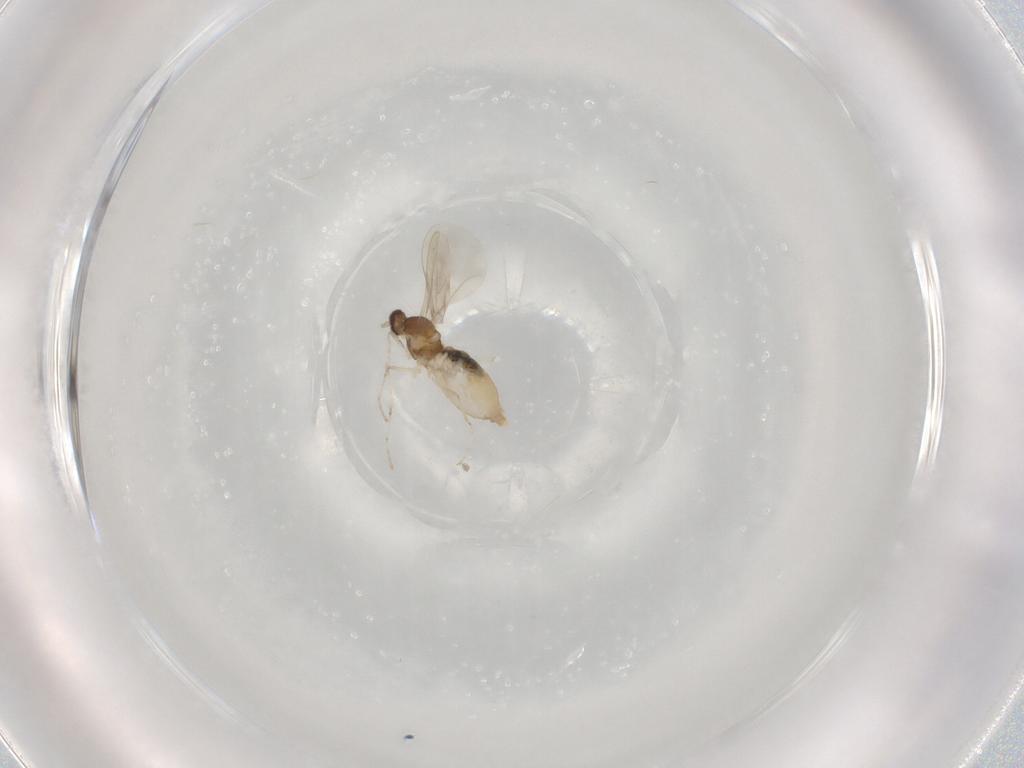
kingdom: Animalia
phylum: Arthropoda
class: Insecta
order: Diptera
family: Cecidomyiidae
